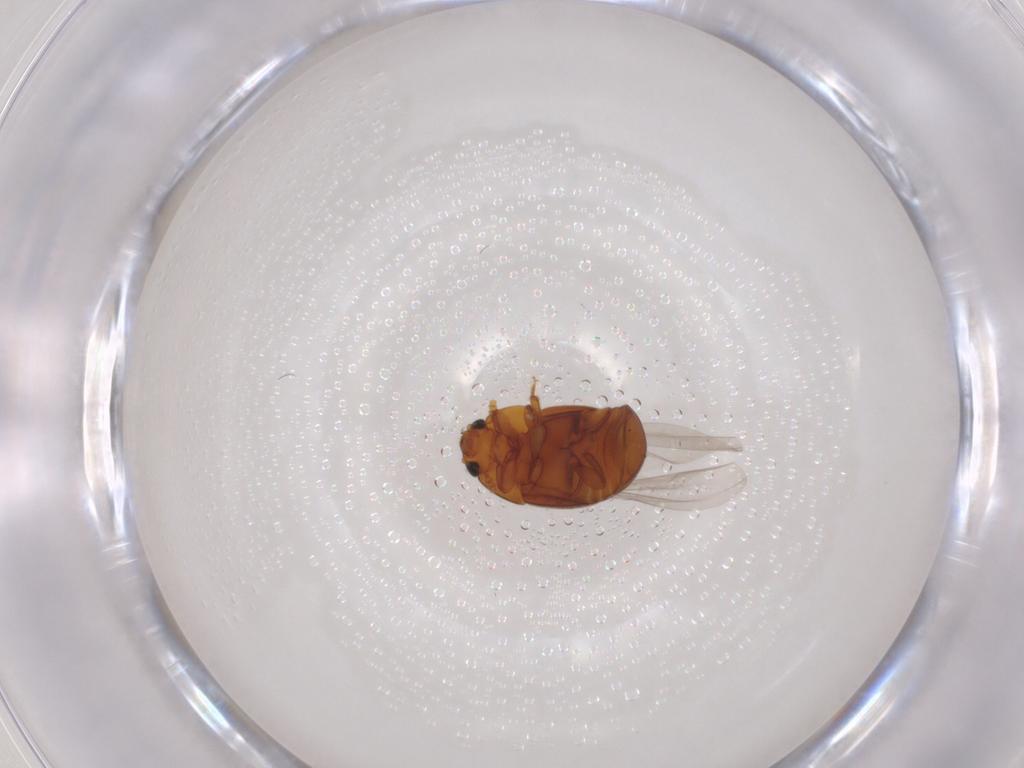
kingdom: Animalia
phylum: Arthropoda
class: Insecta
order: Coleoptera
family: Nitidulidae
